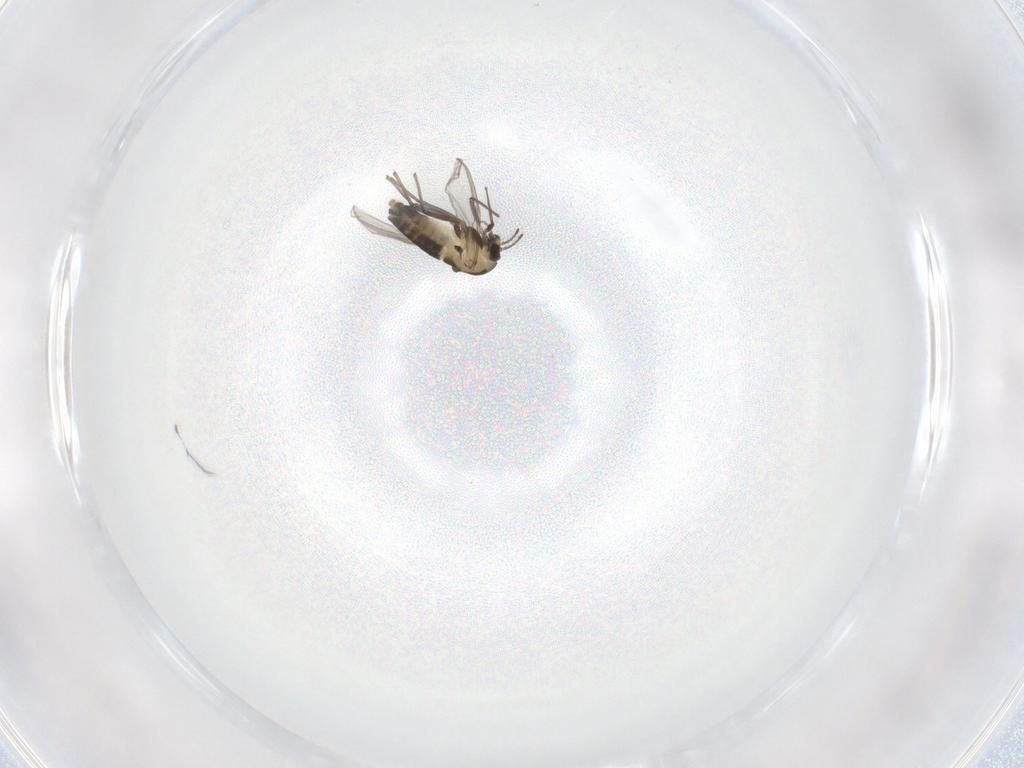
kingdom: Animalia
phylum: Arthropoda
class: Insecta
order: Diptera
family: Chironomidae
